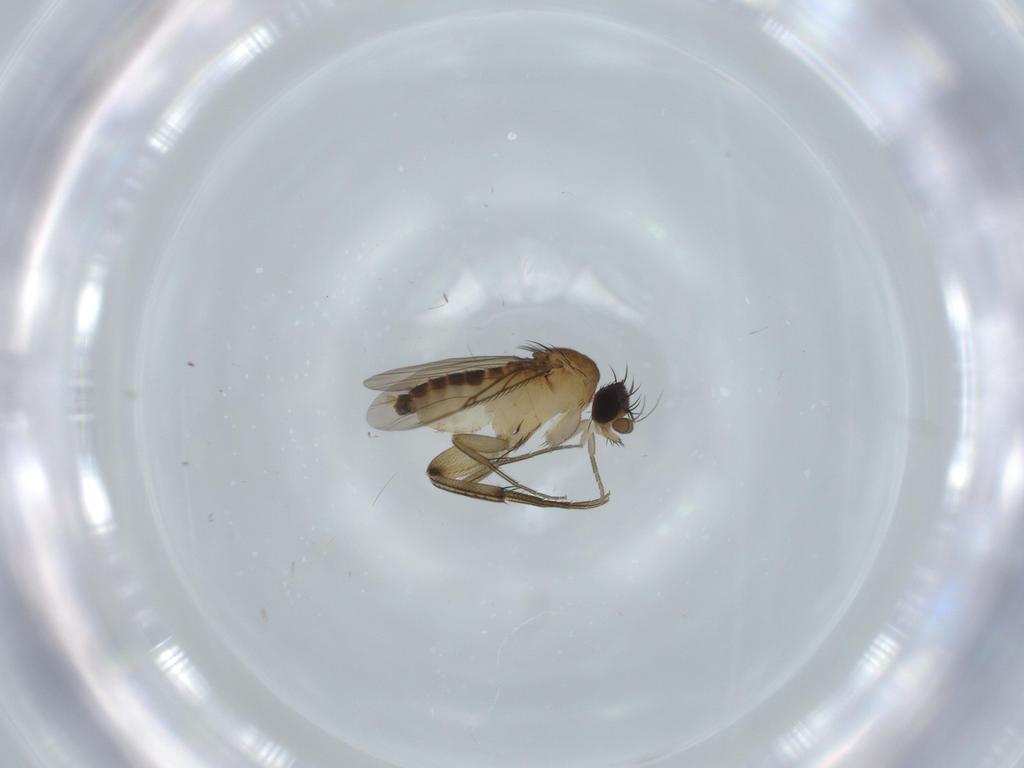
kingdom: Animalia
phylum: Arthropoda
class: Insecta
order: Diptera
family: Phoridae
